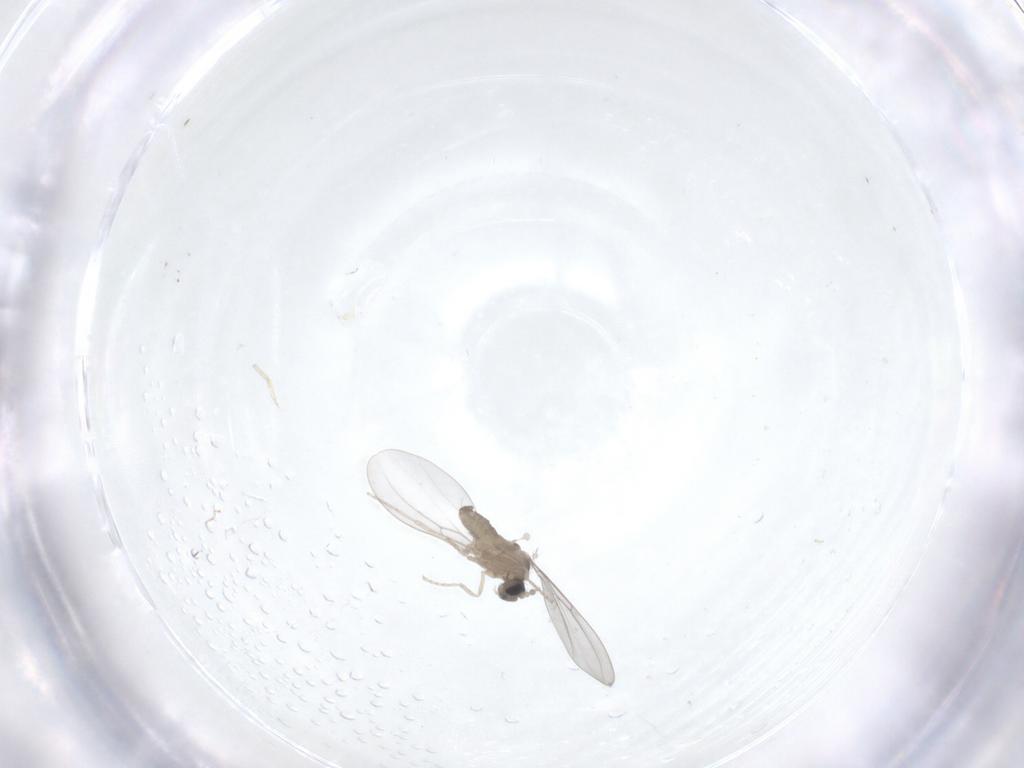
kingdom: Animalia
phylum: Arthropoda
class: Insecta
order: Diptera
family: Cecidomyiidae
